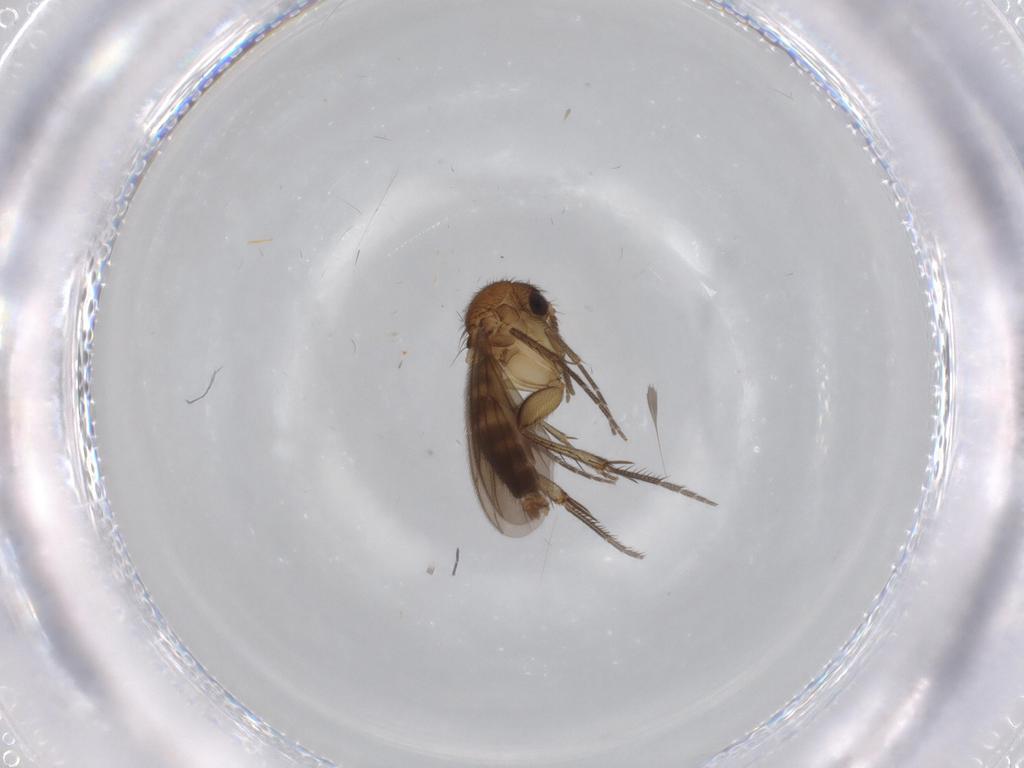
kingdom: Animalia
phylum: Arthropoda
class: Insecta
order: Diptera
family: Mycetophilidae
